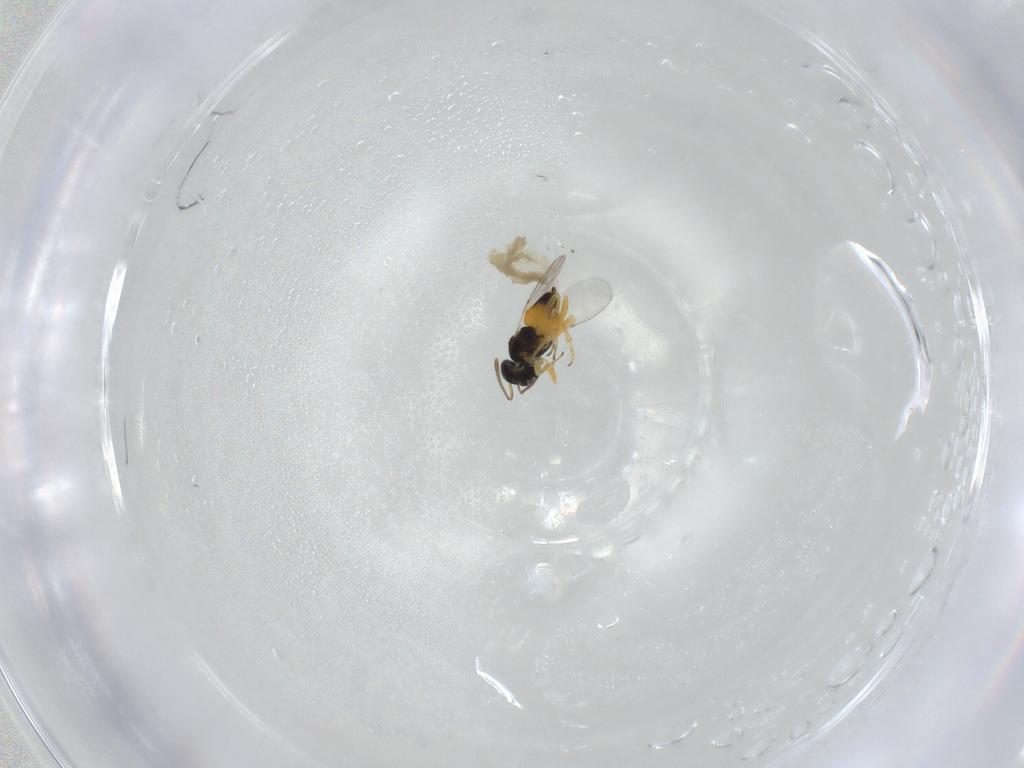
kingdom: Animalia
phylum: Arthropoda
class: Insecta
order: Hymenoptera
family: Encyrtidae
